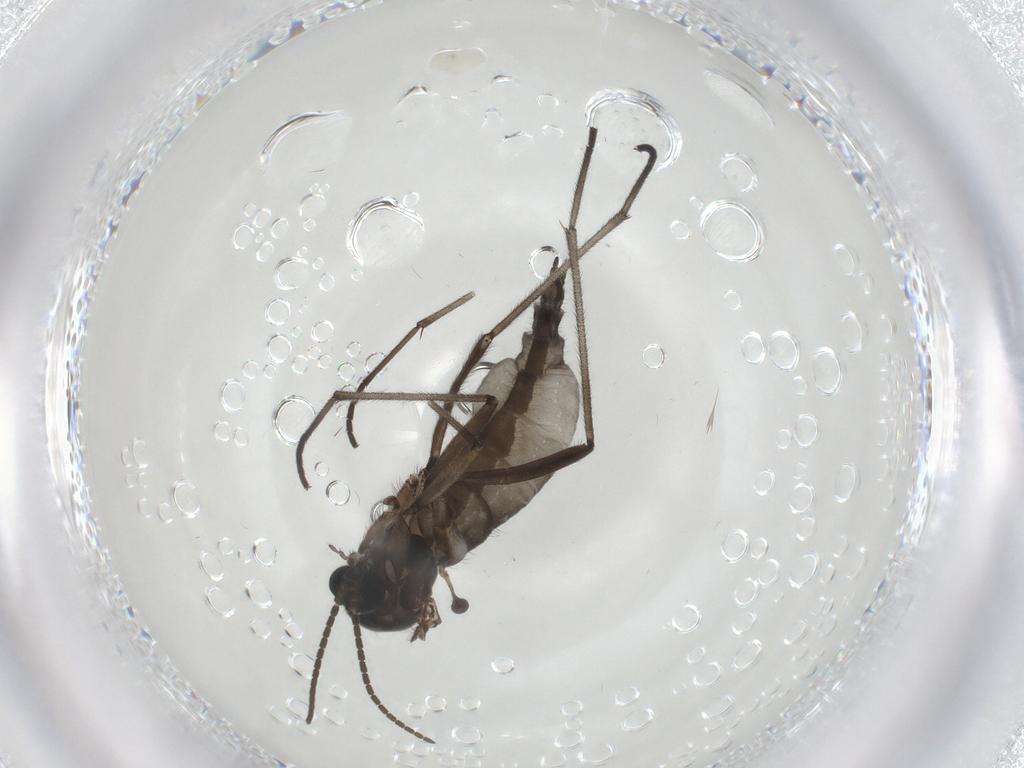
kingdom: Animalia
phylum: Arthropoda
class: Insecta
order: Diptera
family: Sciaridae
